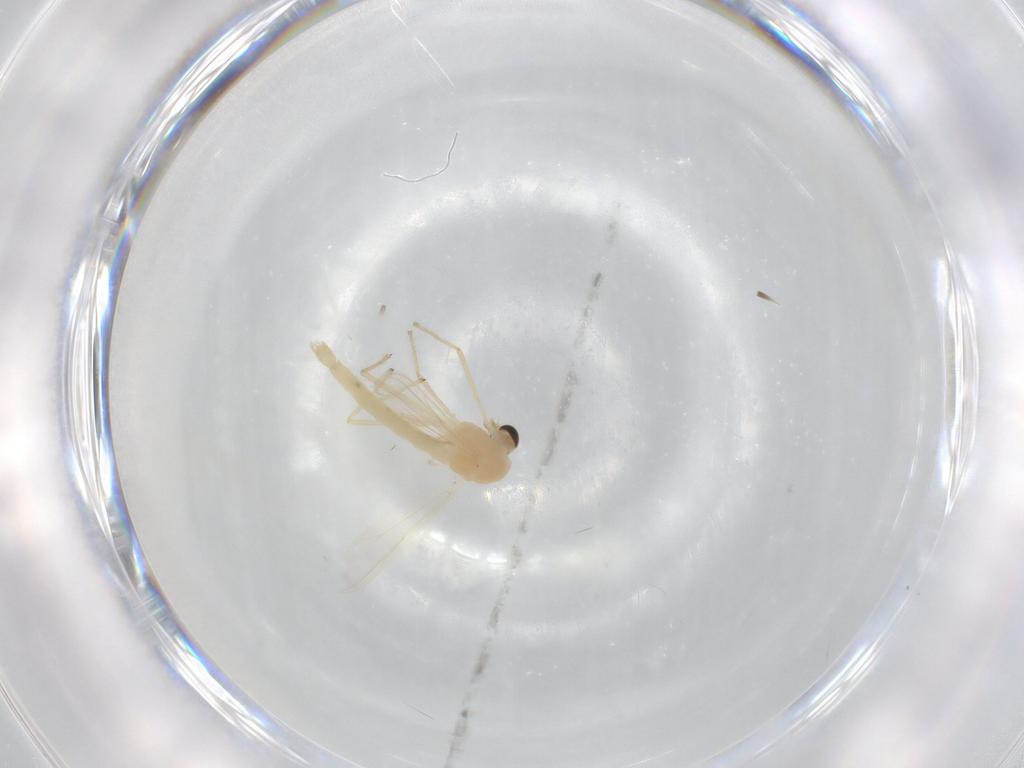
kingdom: Animalia
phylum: Arthropoda
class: Insecta
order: Diptera
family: Chironomidae
